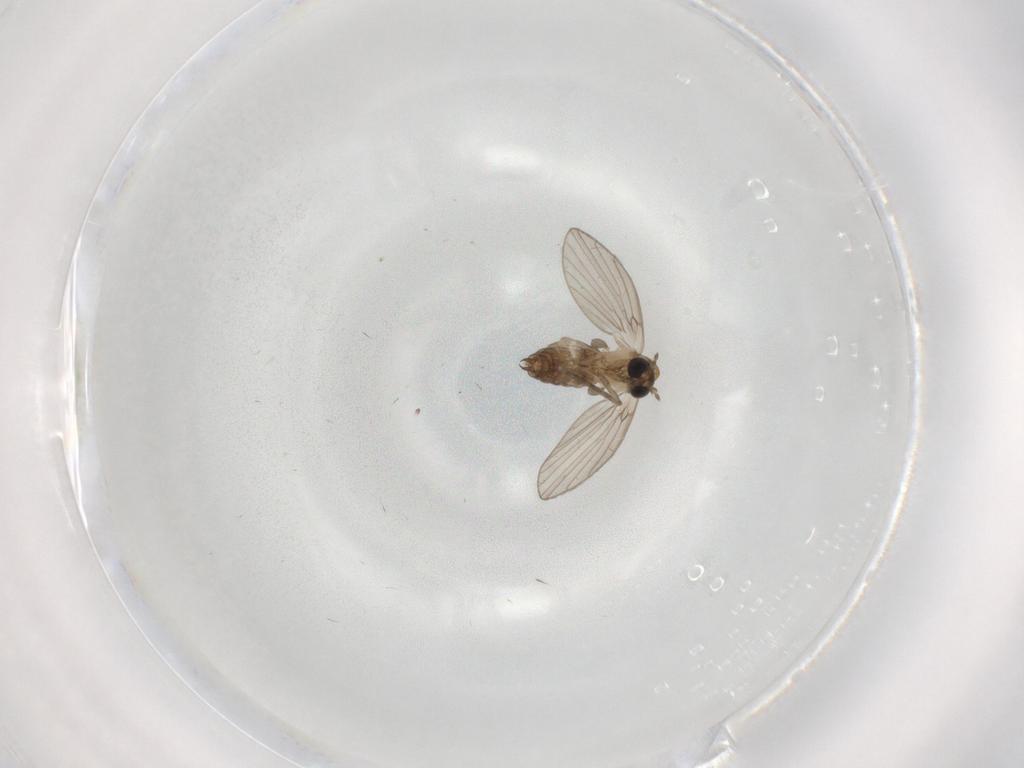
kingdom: Animalia
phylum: Arthropoda
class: Insecta
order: Diptera
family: Psychodidae
